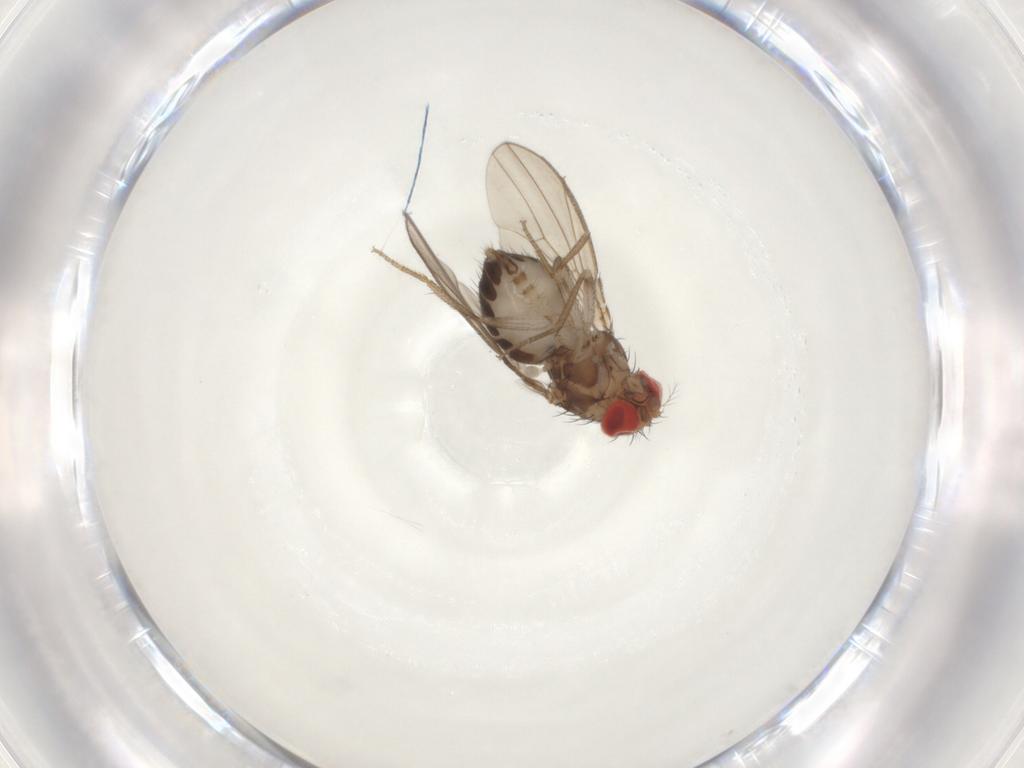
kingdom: Animalia
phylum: Arthropoda
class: Insecta
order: Diptera
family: Drosophilidae
